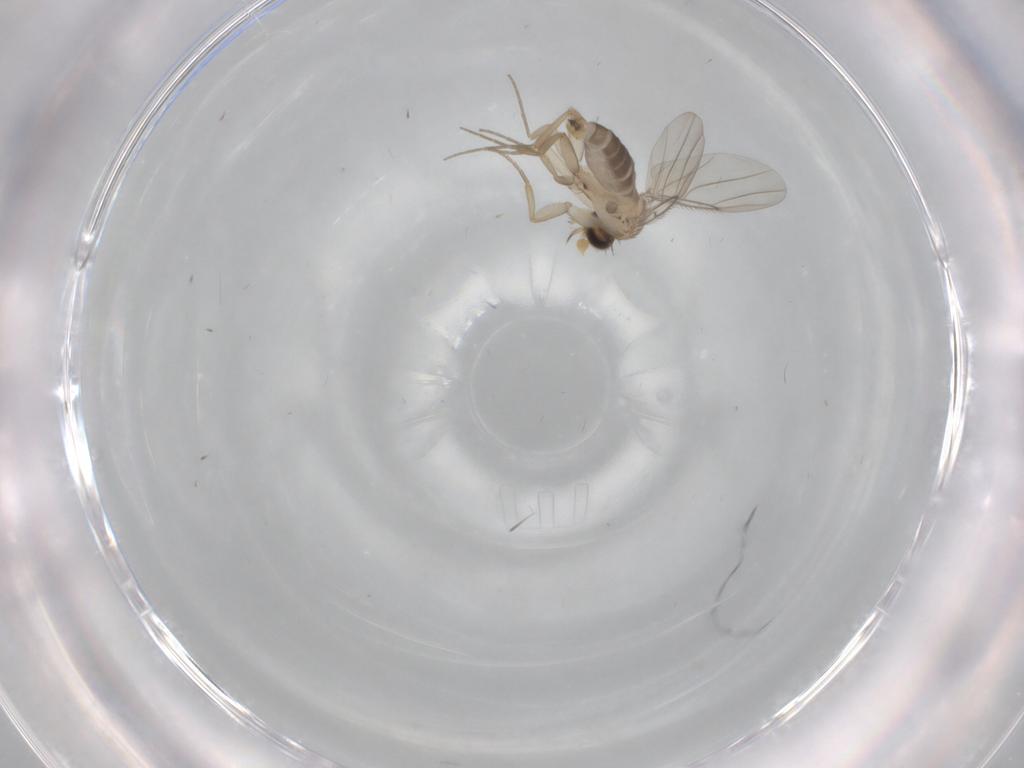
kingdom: Animalia
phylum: Arthropoda
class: Insecta
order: Diptera
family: Phoridae
